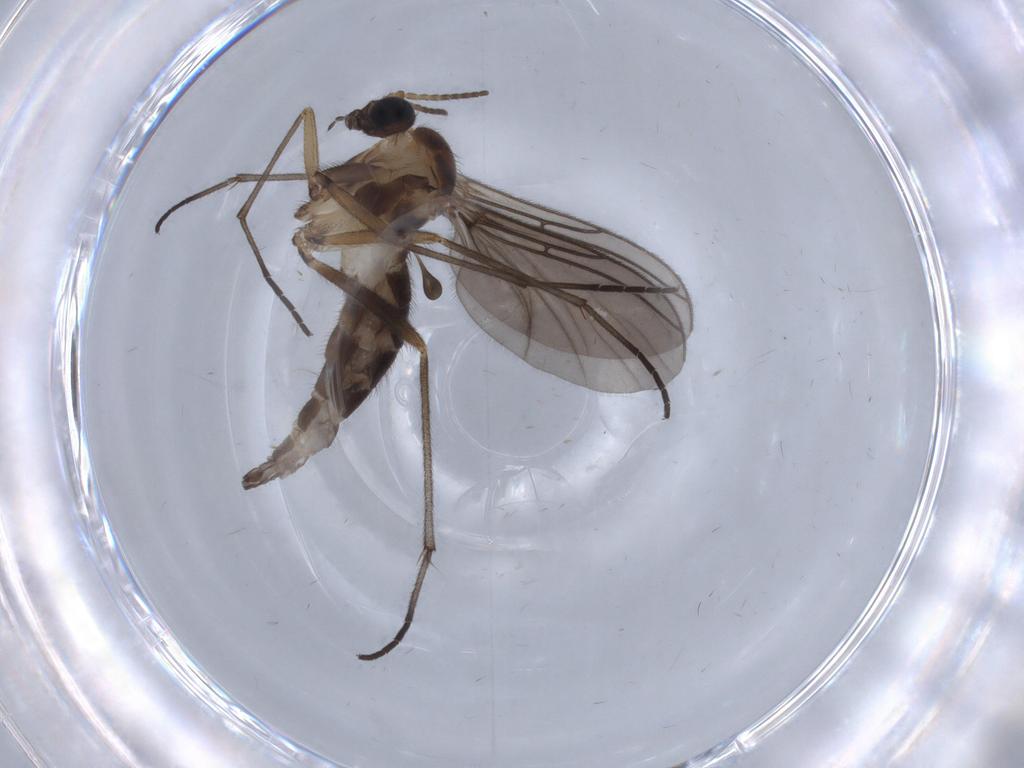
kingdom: Animalia
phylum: Arthropoda
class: Insecta
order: Diptera
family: Sciaridae
